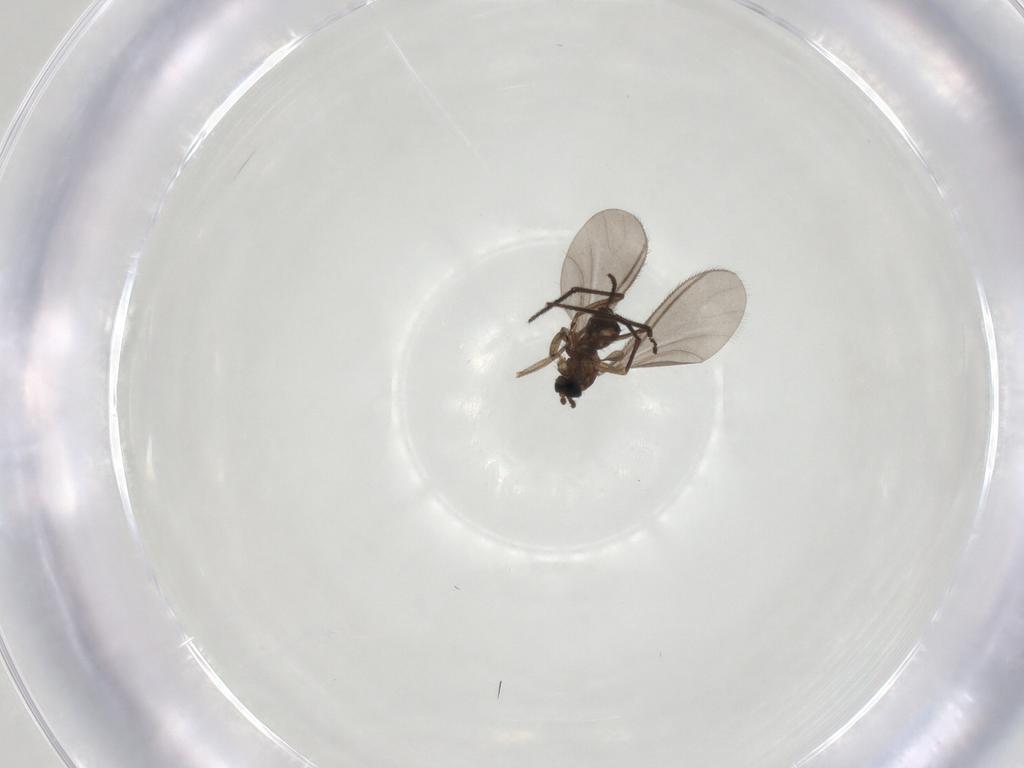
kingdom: Animalia
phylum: Arthropoda
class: Insecta
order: Diptera
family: Sciaridae
